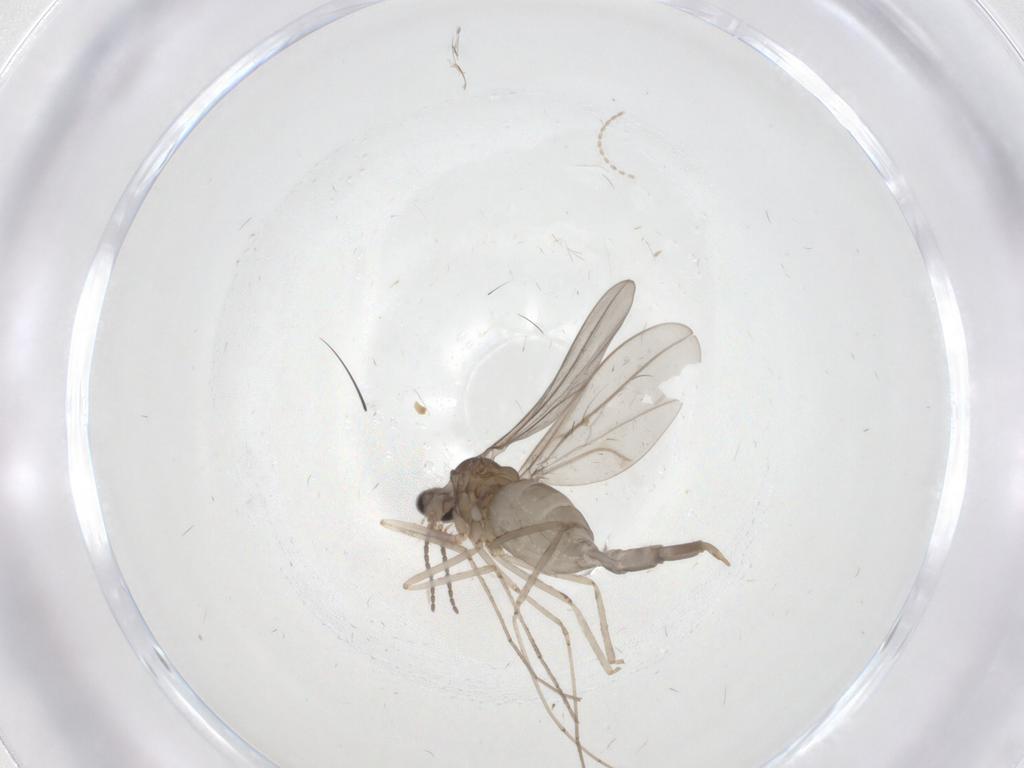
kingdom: Animalia
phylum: Arthropoda
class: Insecta
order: Diptera
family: Cecidomyiidae
